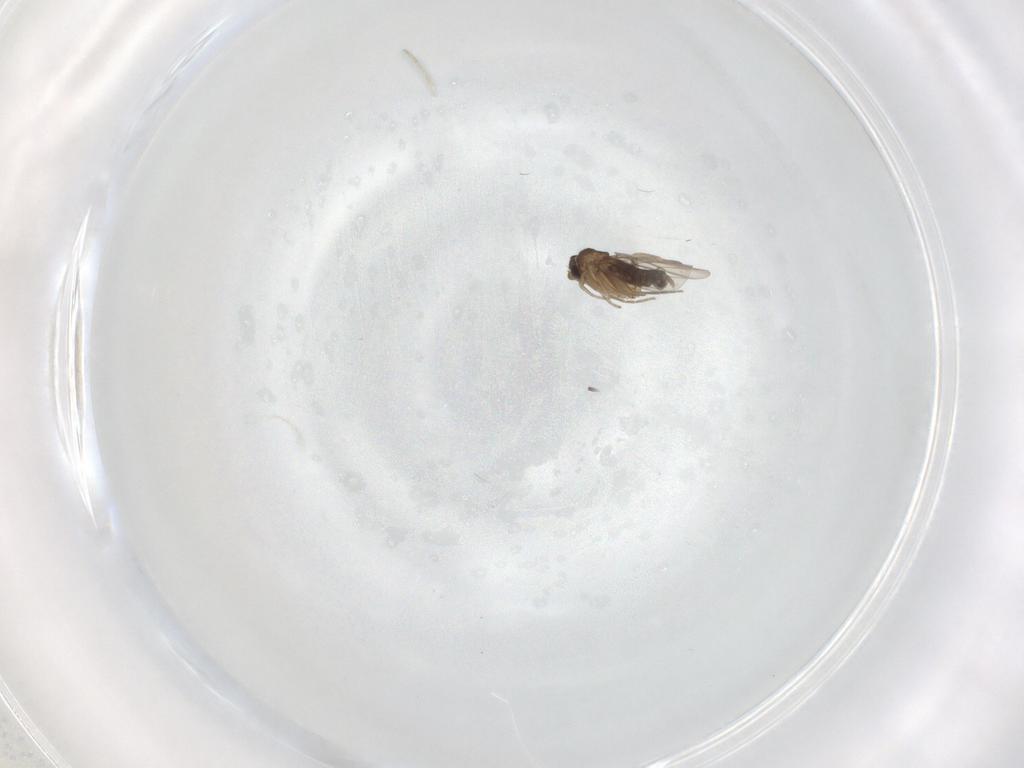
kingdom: Animalia
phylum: Arthropoda
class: Insecta
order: Diptera
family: Phoridae
